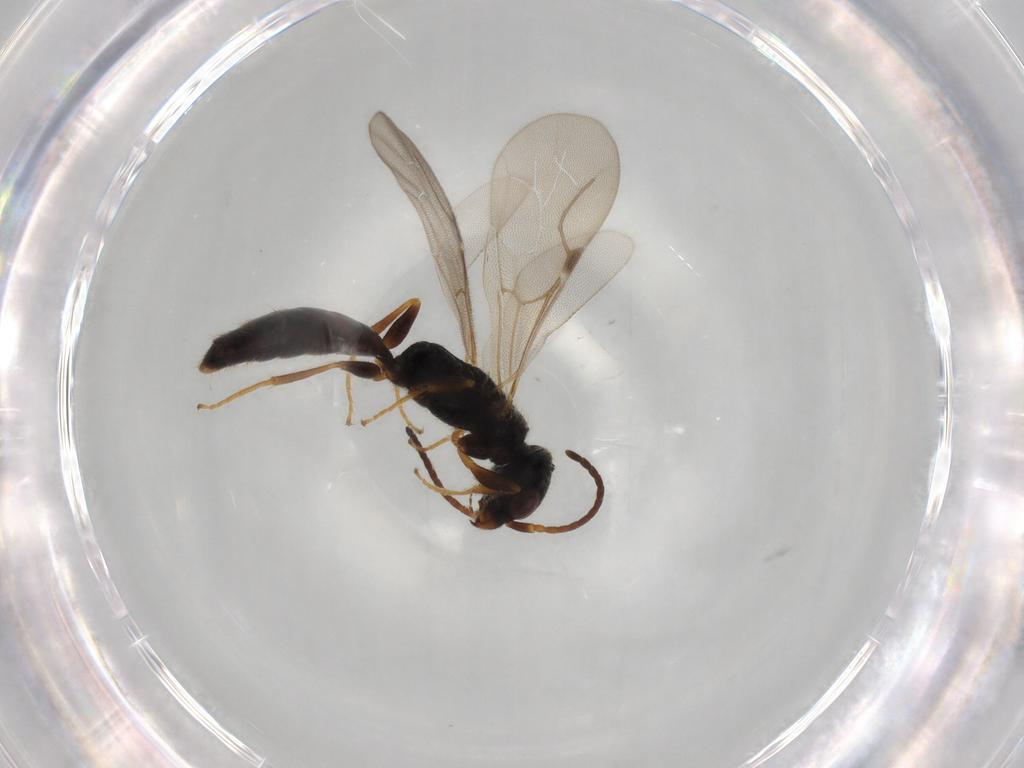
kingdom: Animalia
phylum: Arthropoda
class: Insecta
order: Hymenoptera
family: Bethylidae
